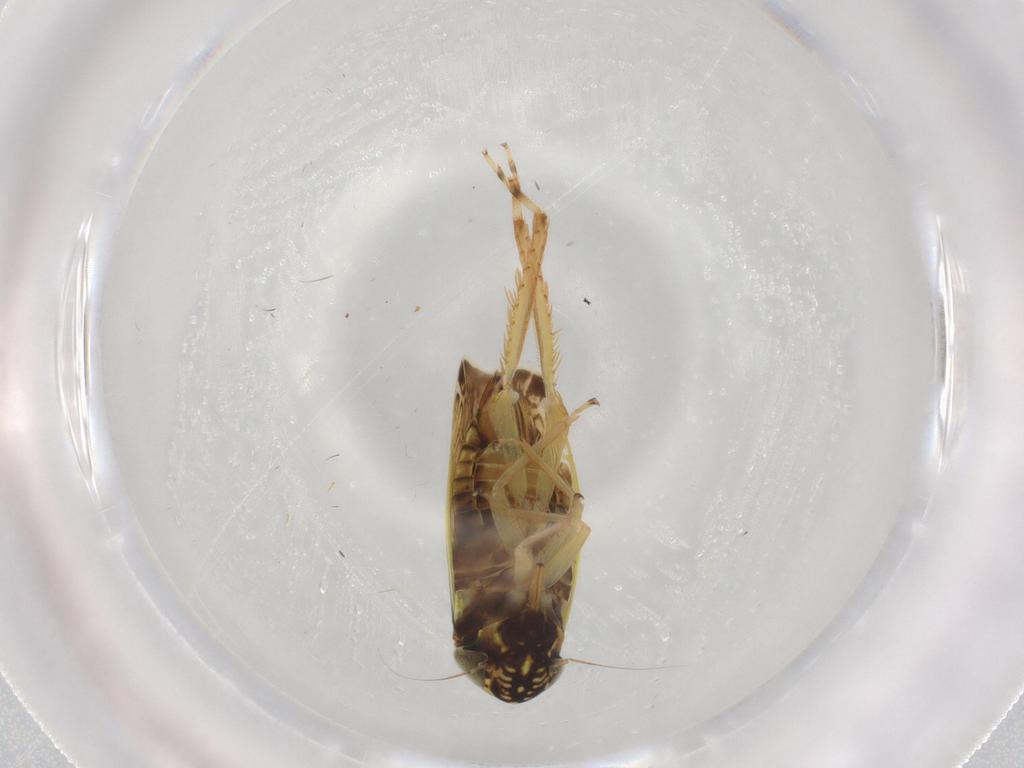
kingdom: Animalia
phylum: Arthropoda
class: Insecta
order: Hemiptera
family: Cicadellidae
